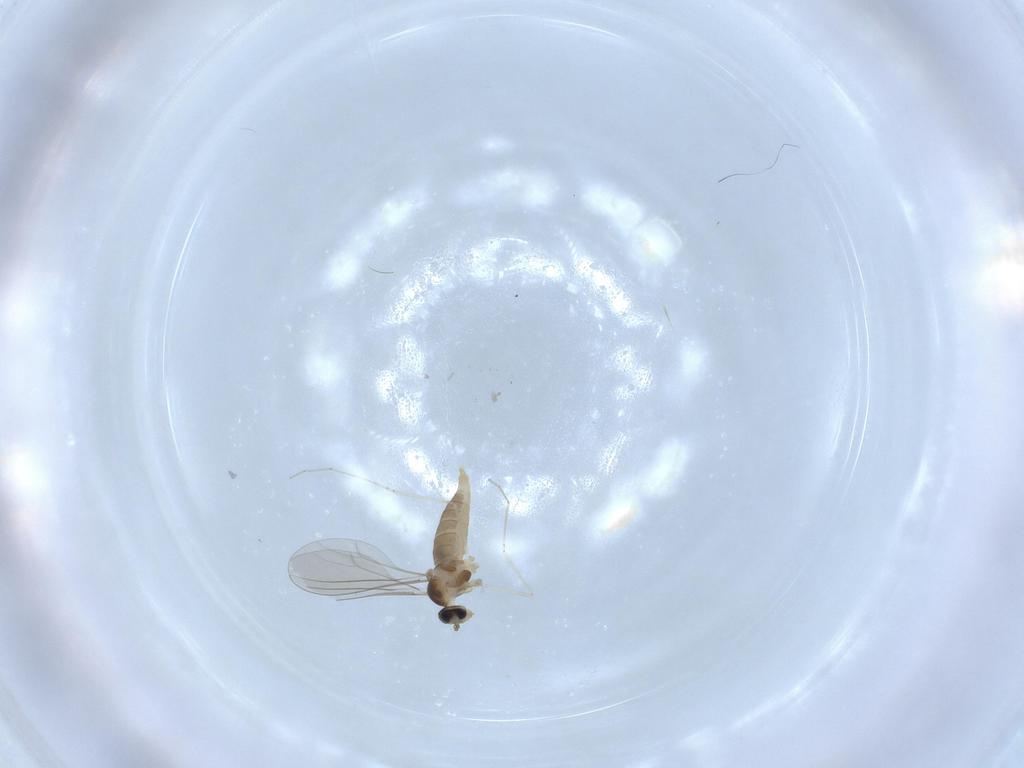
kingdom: Animalia
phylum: Arthropoda
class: Insecta
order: Diptera
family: Cecidomyiidae
